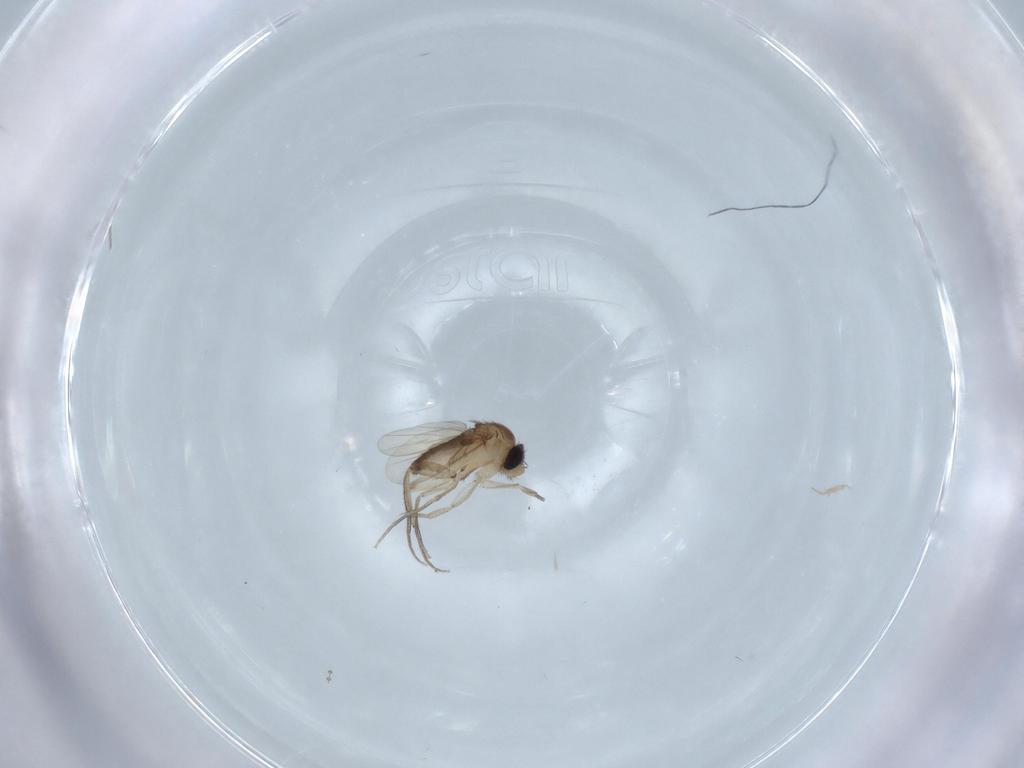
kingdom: Animalia
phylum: Arthropoda
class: Insecta
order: Diptera
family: Phoridae
